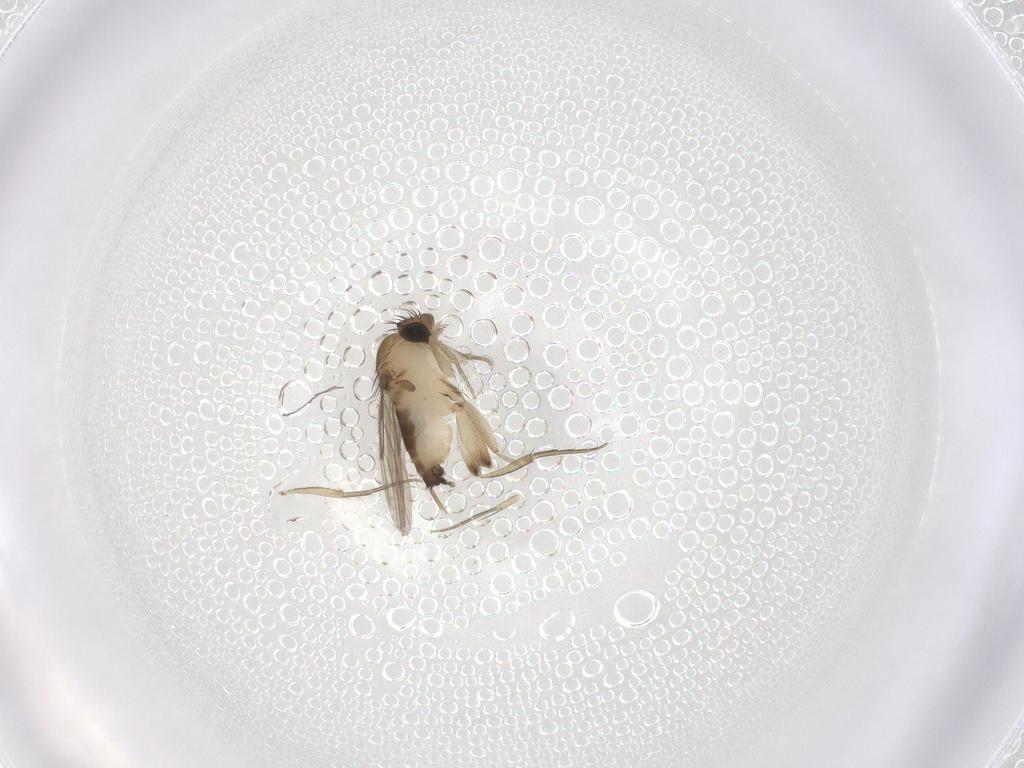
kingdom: Animalia
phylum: Arthropoda
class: Insecta
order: Diptera
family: Phoridae
